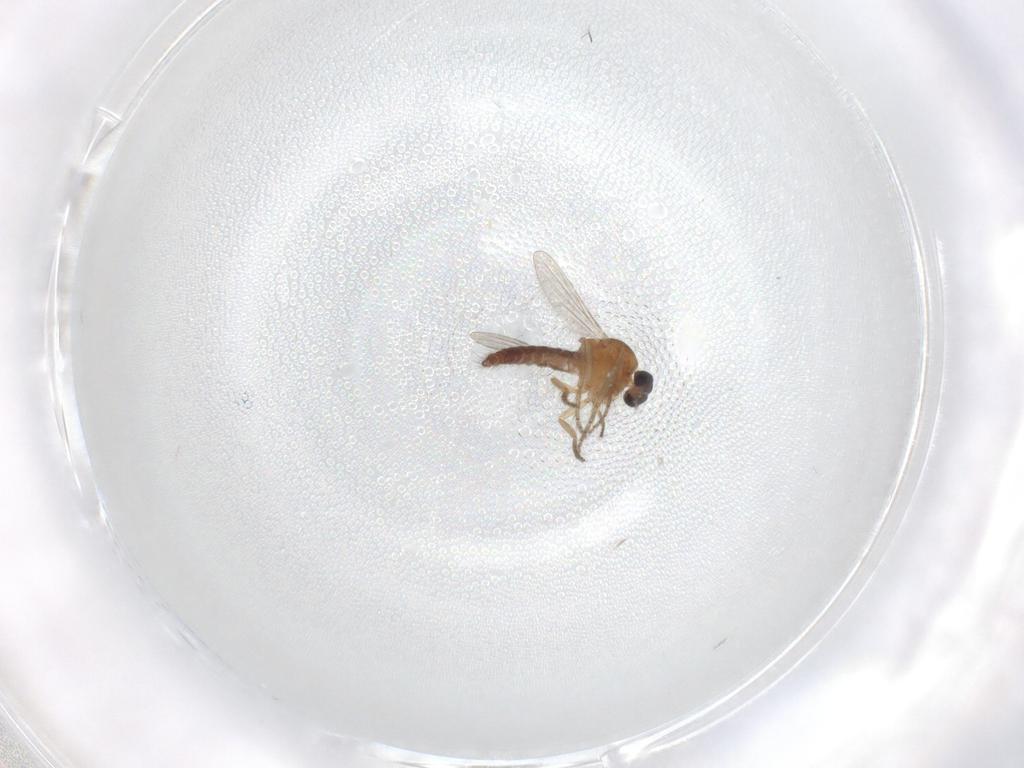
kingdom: Animalia
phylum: Arthropoda
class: Insecta
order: Diptera
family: Ceratopogonidae
